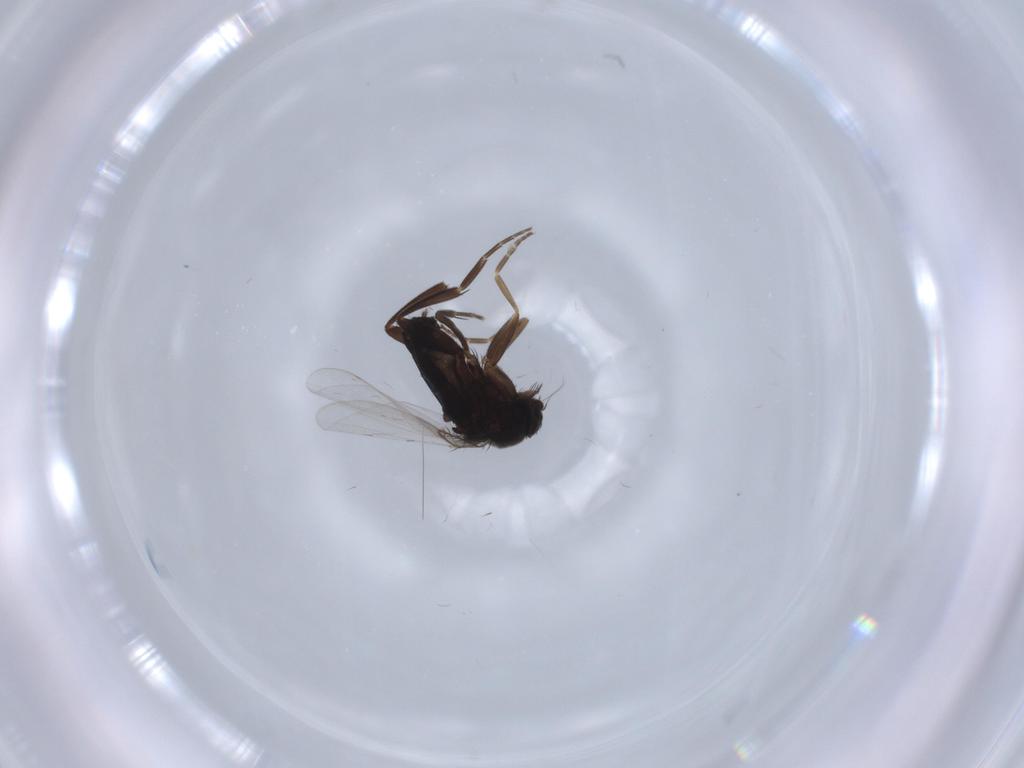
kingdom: Animalia
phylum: Arthropoda
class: Insecta
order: Diptera
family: Phoridae
